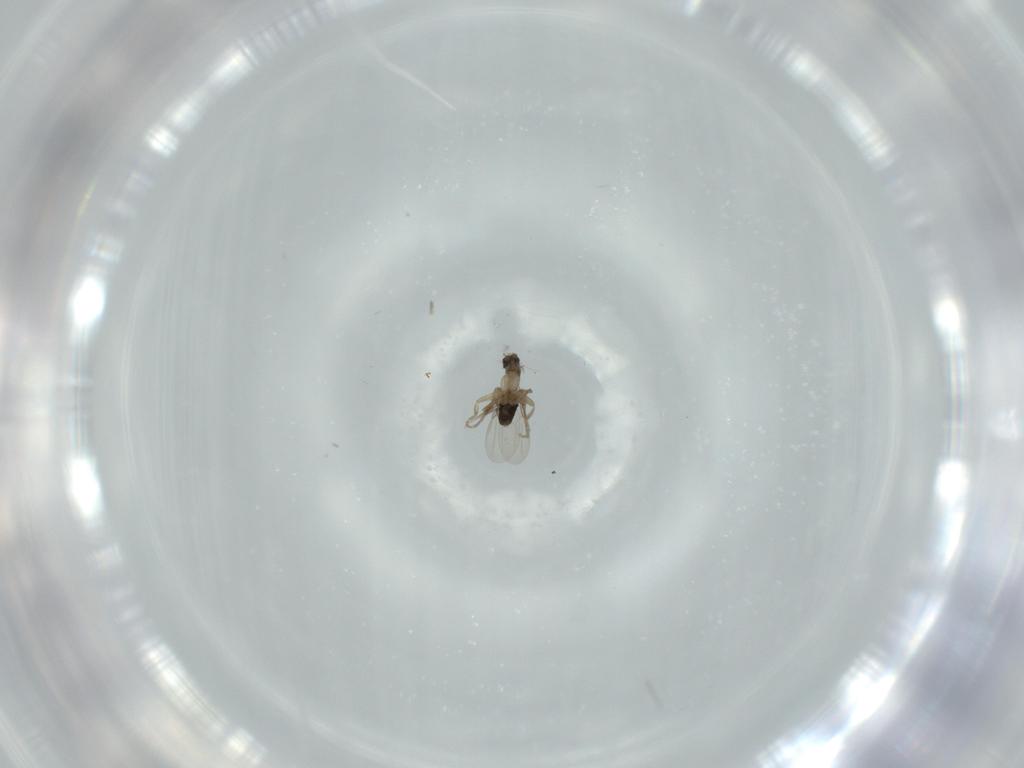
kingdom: Animalia
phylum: Arthropoda
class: Insecta
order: Diptera
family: Phoridae
